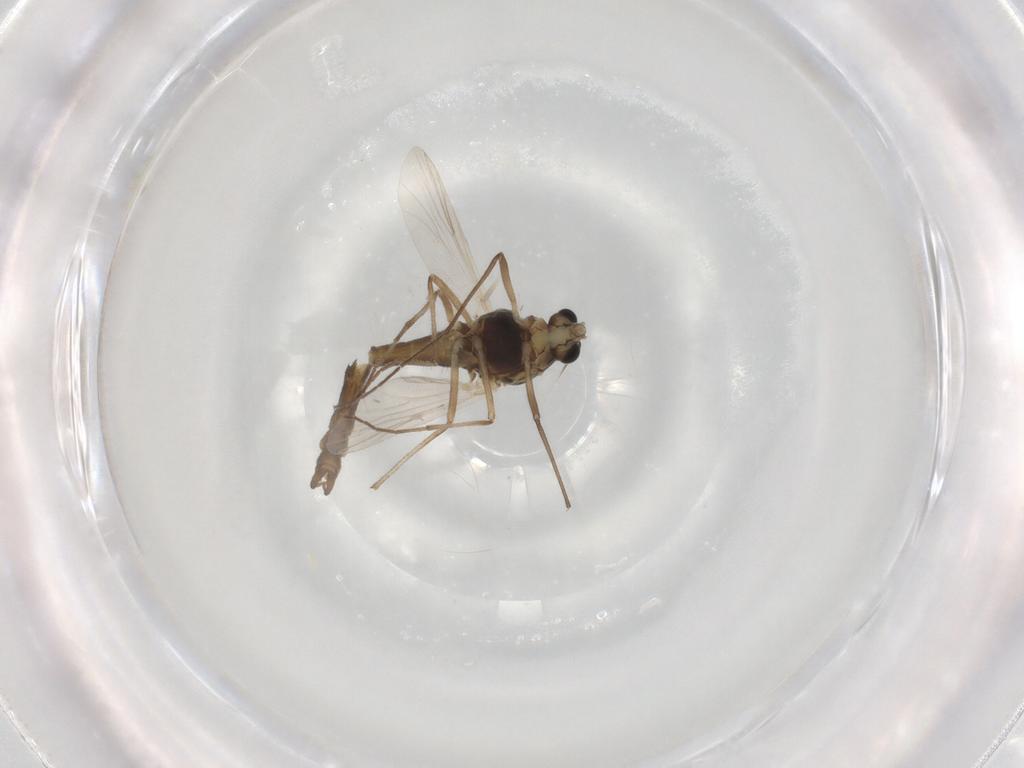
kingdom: Animalia
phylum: Arthropoda
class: Insecta
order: Diptera
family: Chironomidae
